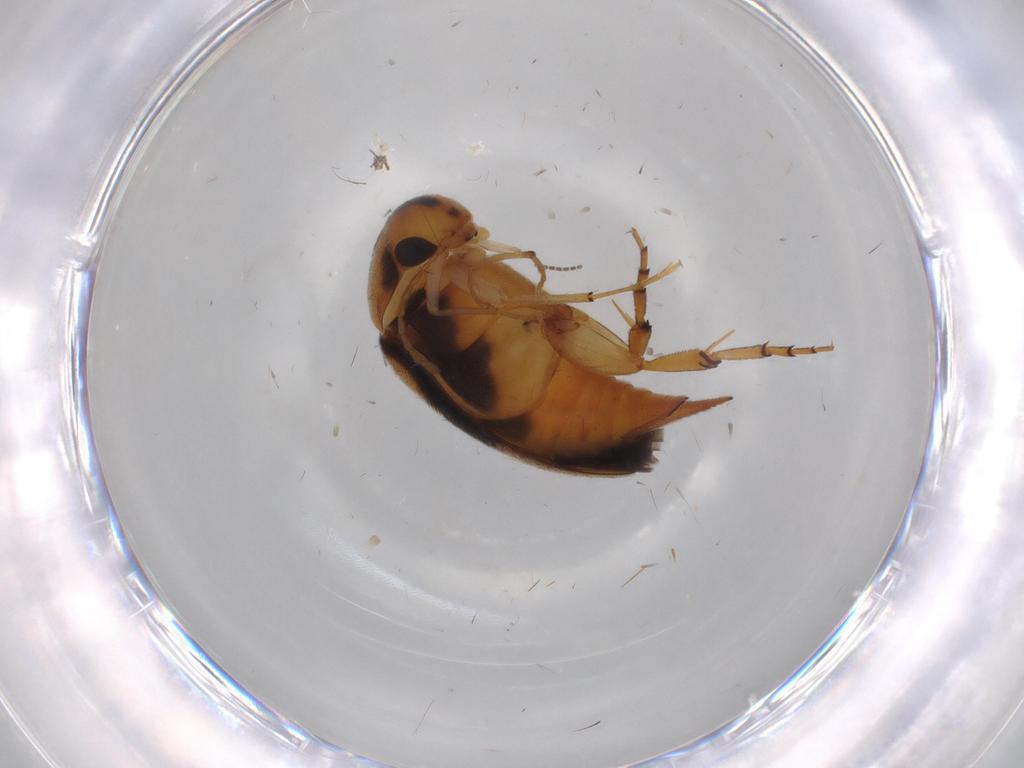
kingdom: Animalia
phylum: Arthropoda
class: Insecta
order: Coleoptera
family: Mordellidae
